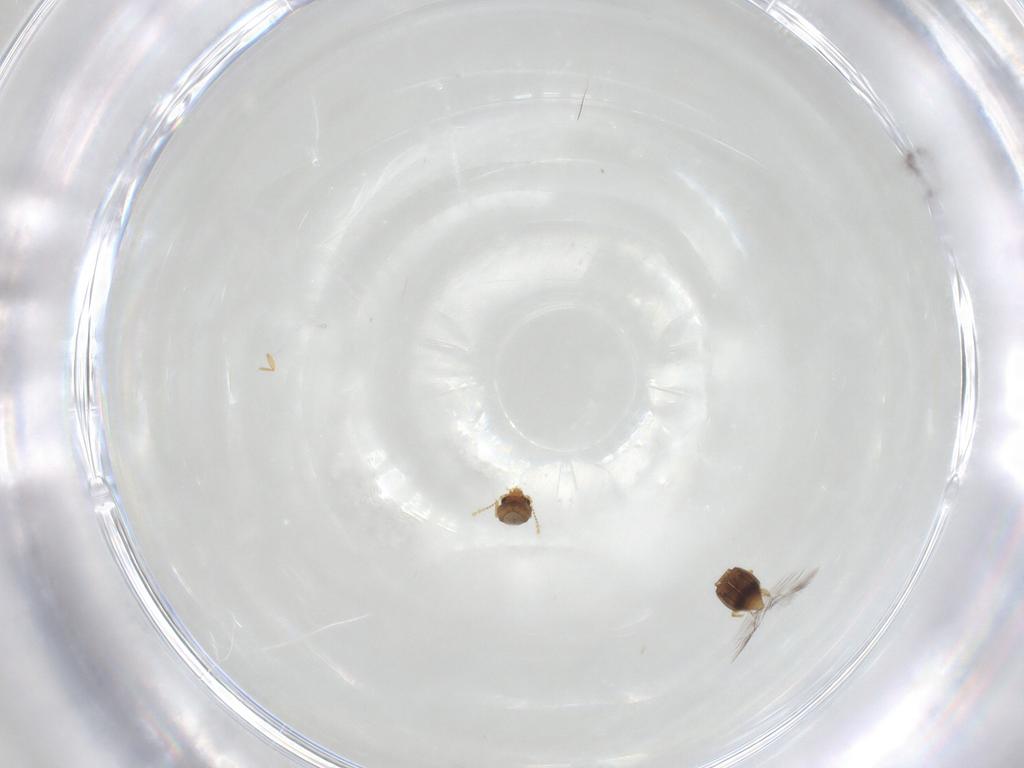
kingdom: Animalia
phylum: Arthropoda
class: Insecta
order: Coleoptera
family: Ptiliidae
